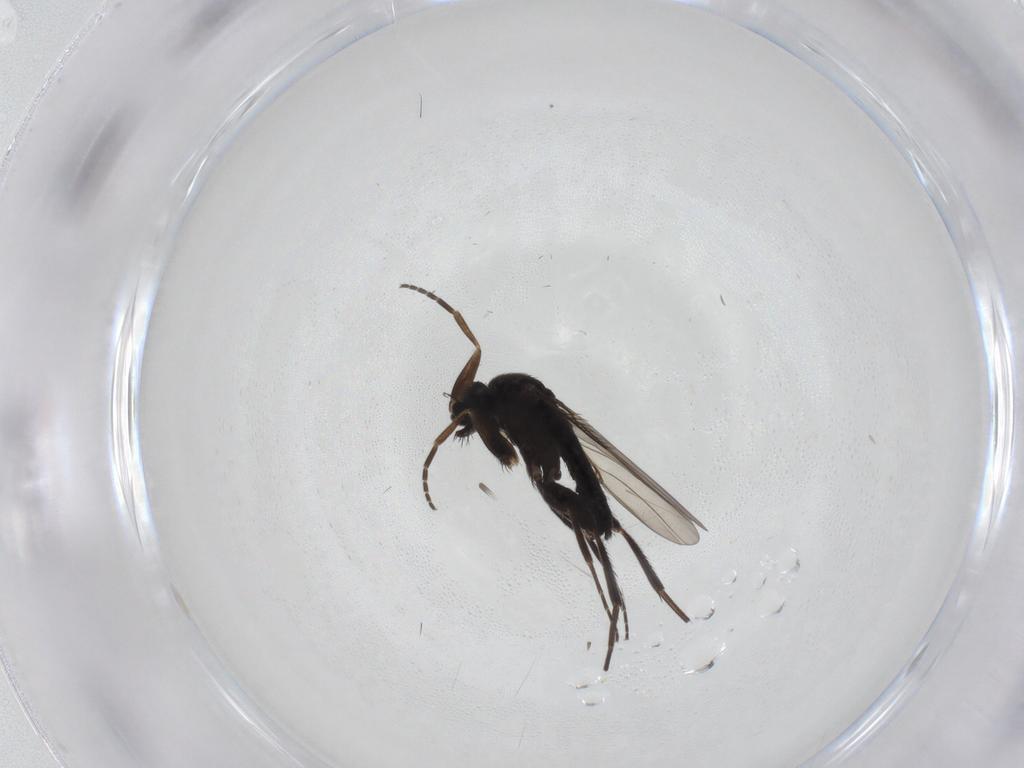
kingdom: Animalia
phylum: Arthropoda
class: Insecta
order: Diptera
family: Phoridae
